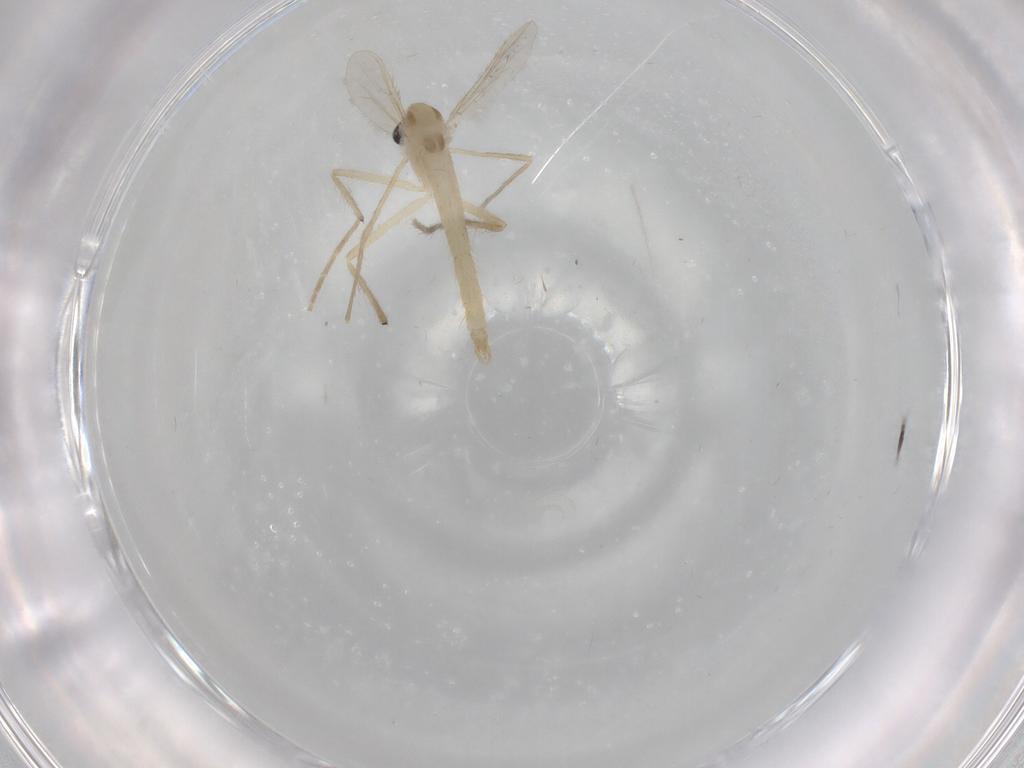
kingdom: Animalia
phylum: Arthropoda
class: Insecta
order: Diptera
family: Chironomidae
